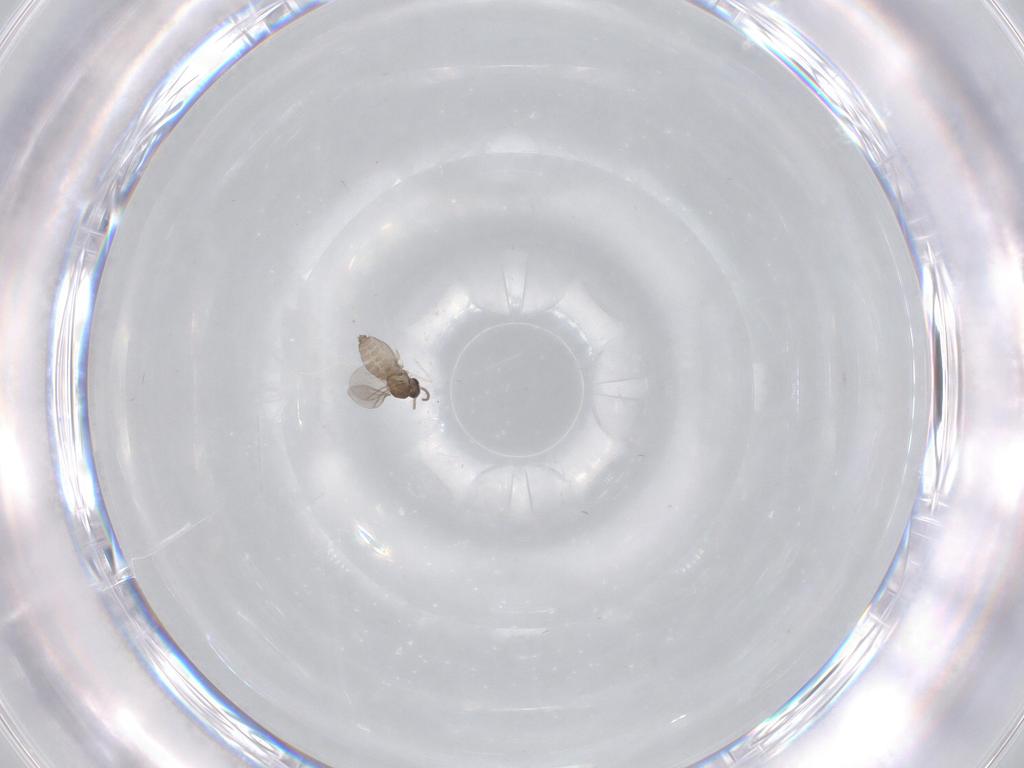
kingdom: Animalia
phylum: Arthropoda
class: Insecta
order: Diptera
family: Cecidomyiidae
